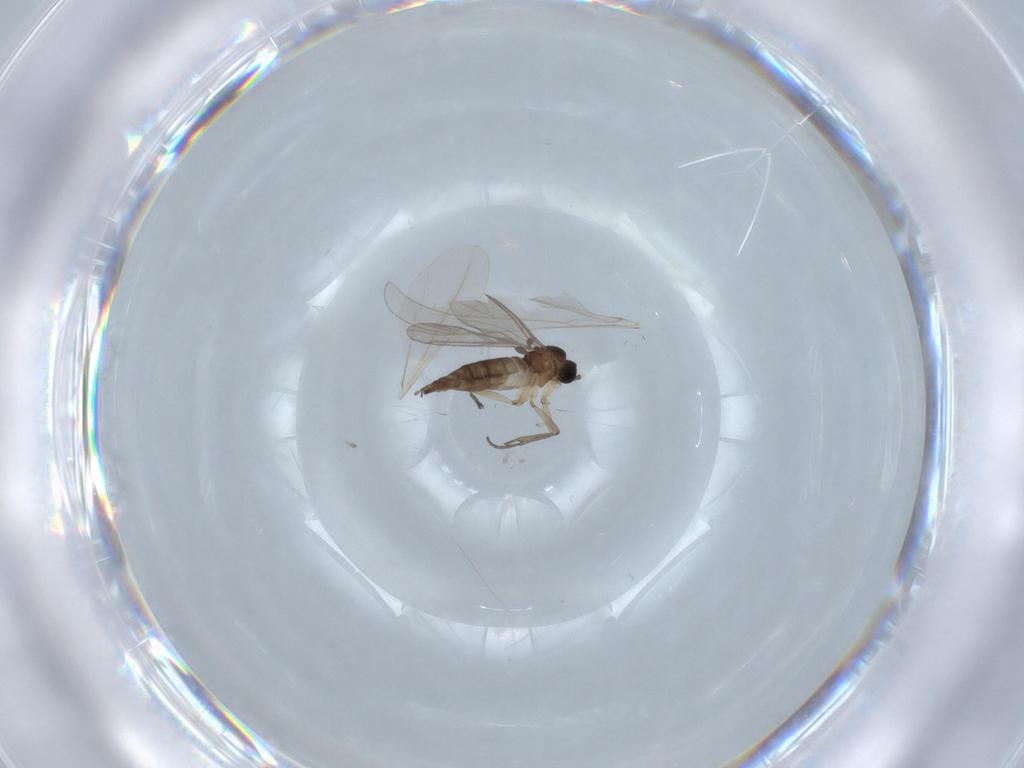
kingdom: Animalia
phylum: Arthropoda
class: Insecta
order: Diptera
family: Cecidomyiidae
